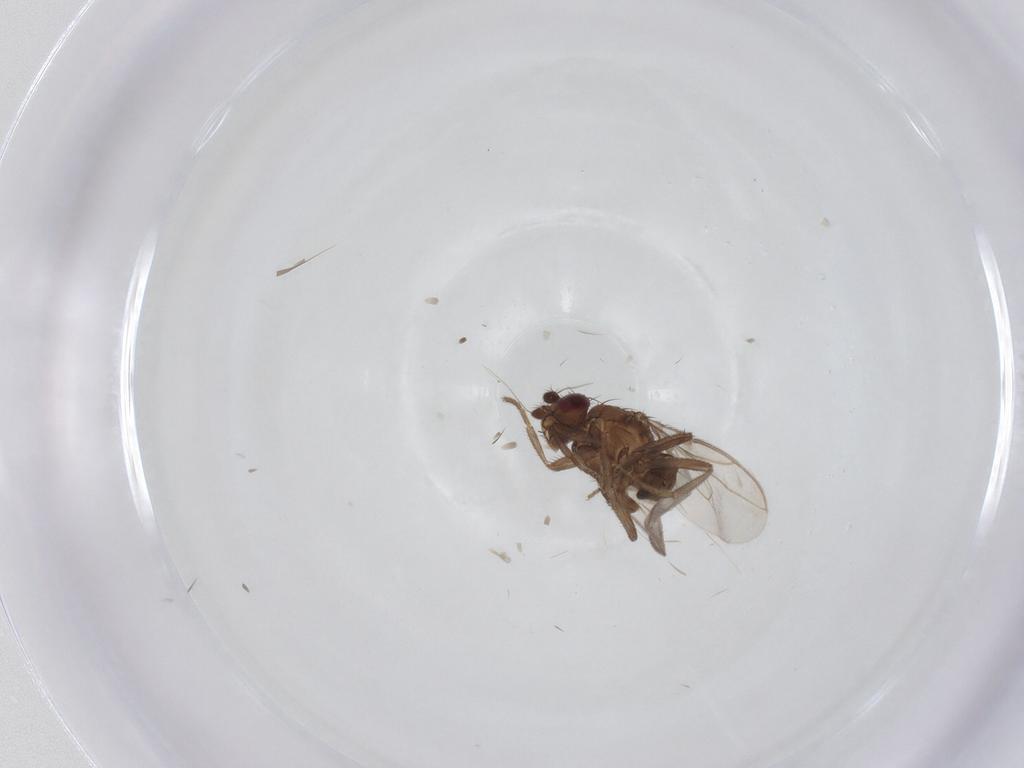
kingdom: Animalia
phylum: Arthropoda
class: Insecta
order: Diptera
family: Sphaeroceridae
